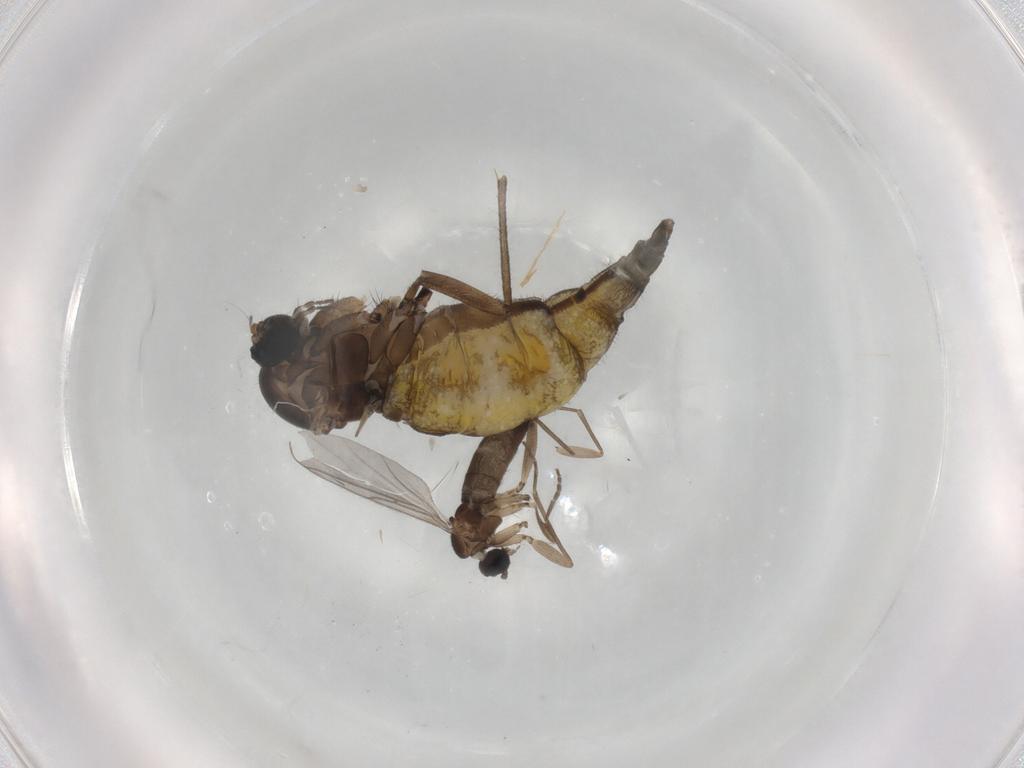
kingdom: Animalia
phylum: Arthropoda
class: Insecta
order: Diptera
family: Sciaridae
